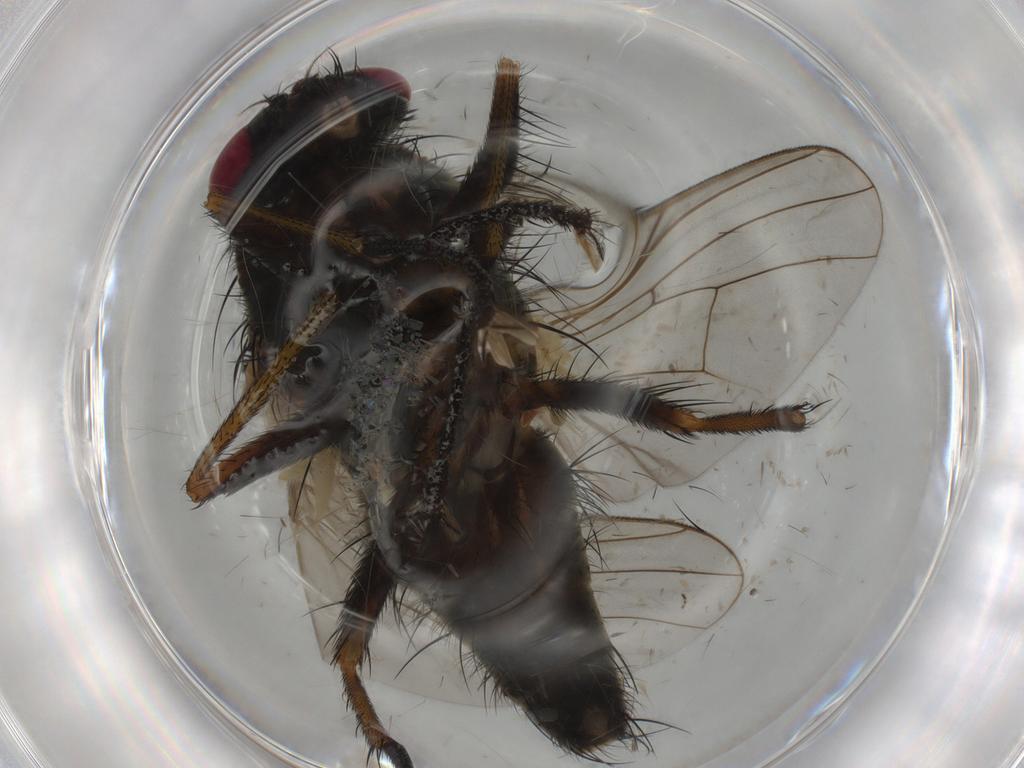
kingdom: Animalia
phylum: Arthropoda
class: Insecta
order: Diptera
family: Muscidae
